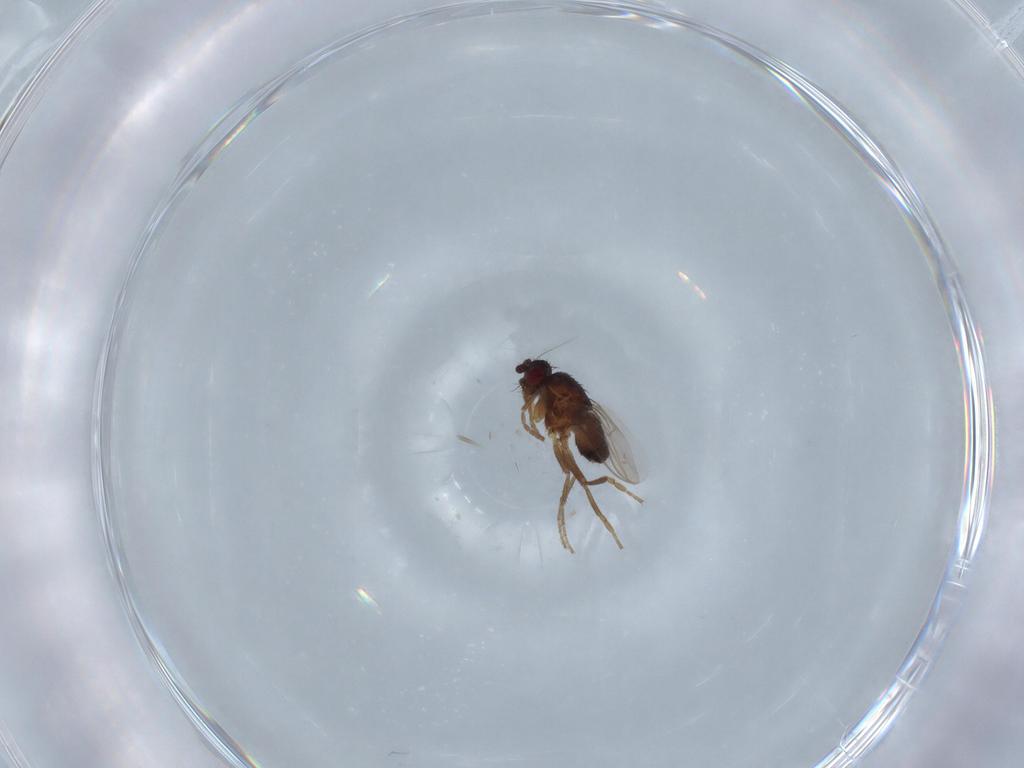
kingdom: Animalia
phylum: Arthropoda
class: Insecta
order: Diptera
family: Sphaeroceridae
